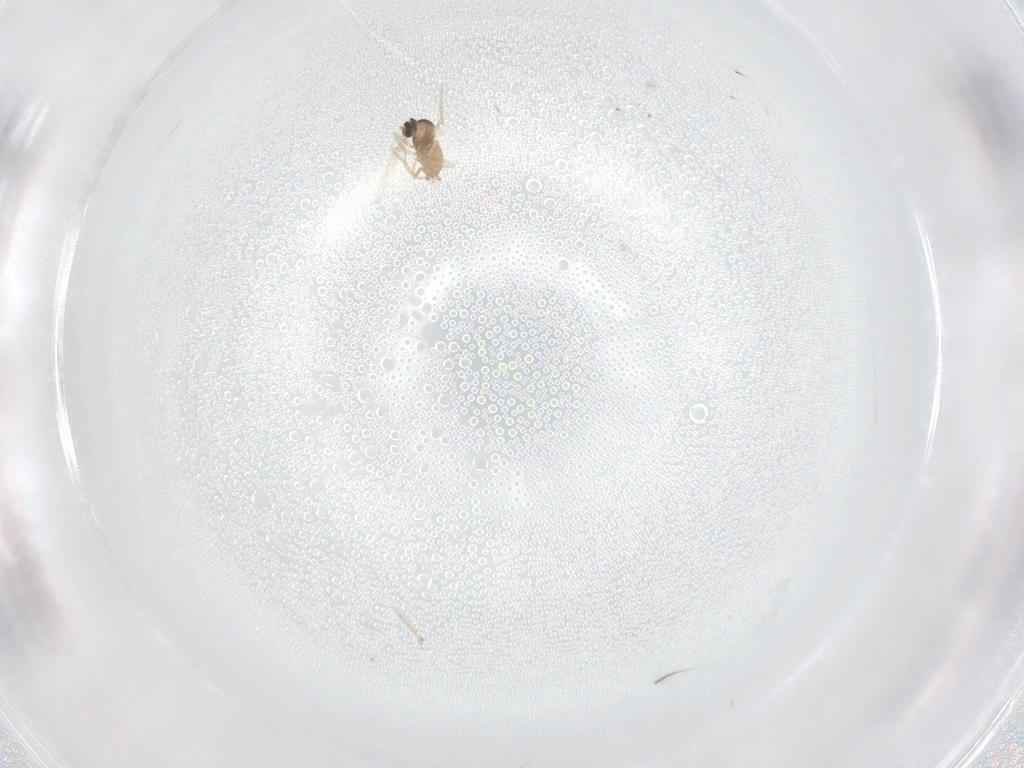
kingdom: Animalia
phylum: Arthropoda
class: Insecta
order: Diptera
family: Cecidomyiidae
